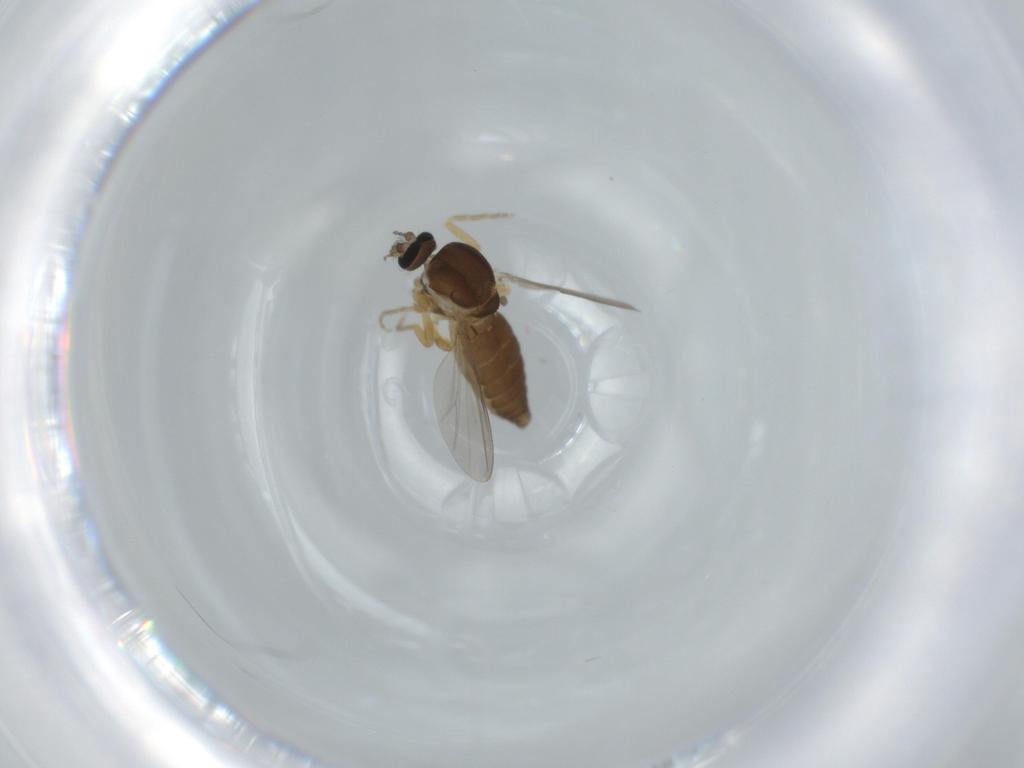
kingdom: Animalia
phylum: Arthropoda
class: Insecta
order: Diptera
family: Ceratopogonidae
